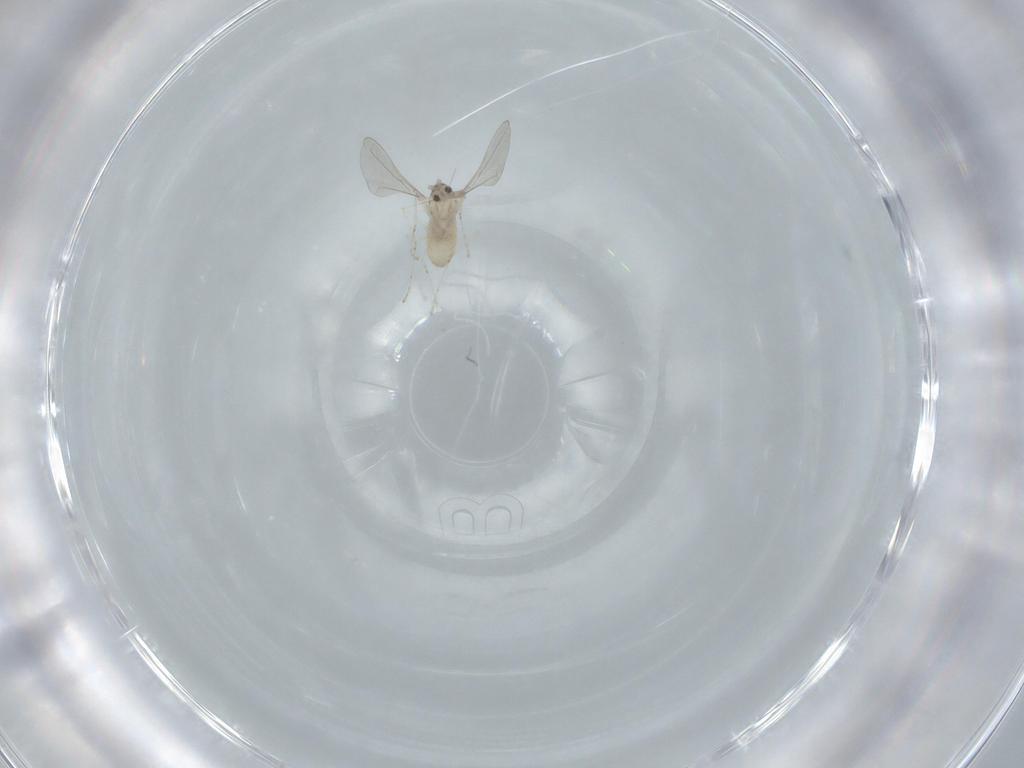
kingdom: Animalia
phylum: Arthropoda
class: Insecta
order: Diptera
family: Cecidomyiidae
